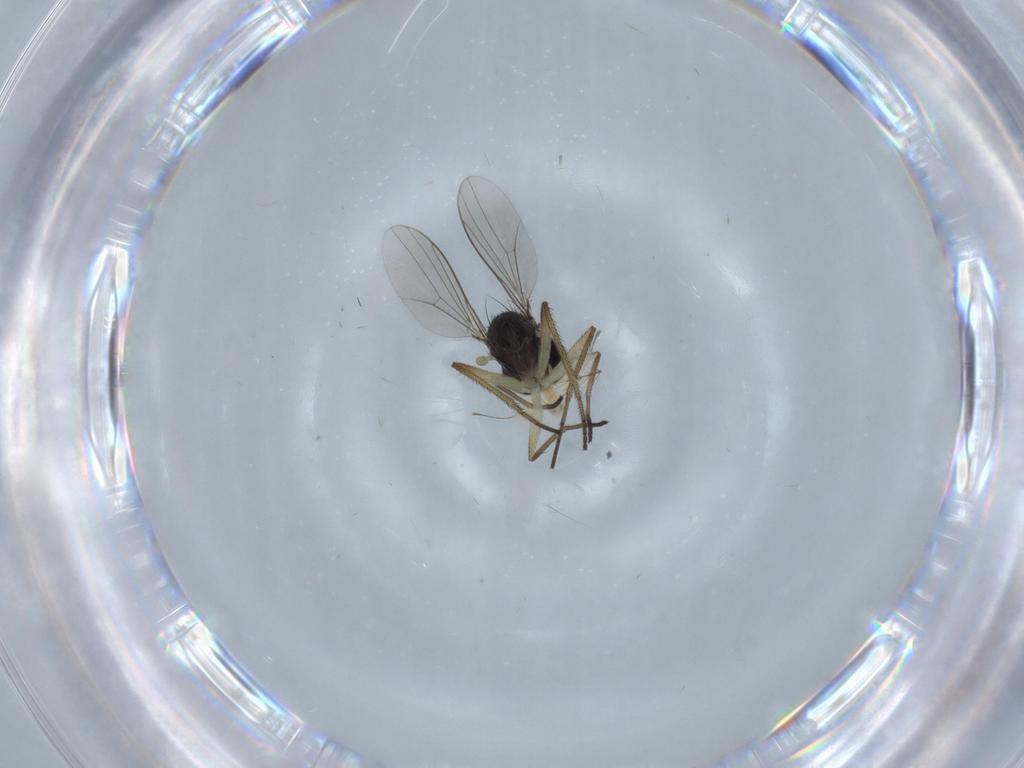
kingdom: Animalia
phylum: Arthropoda
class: Insecta
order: Diptera
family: Dolichopodidae
